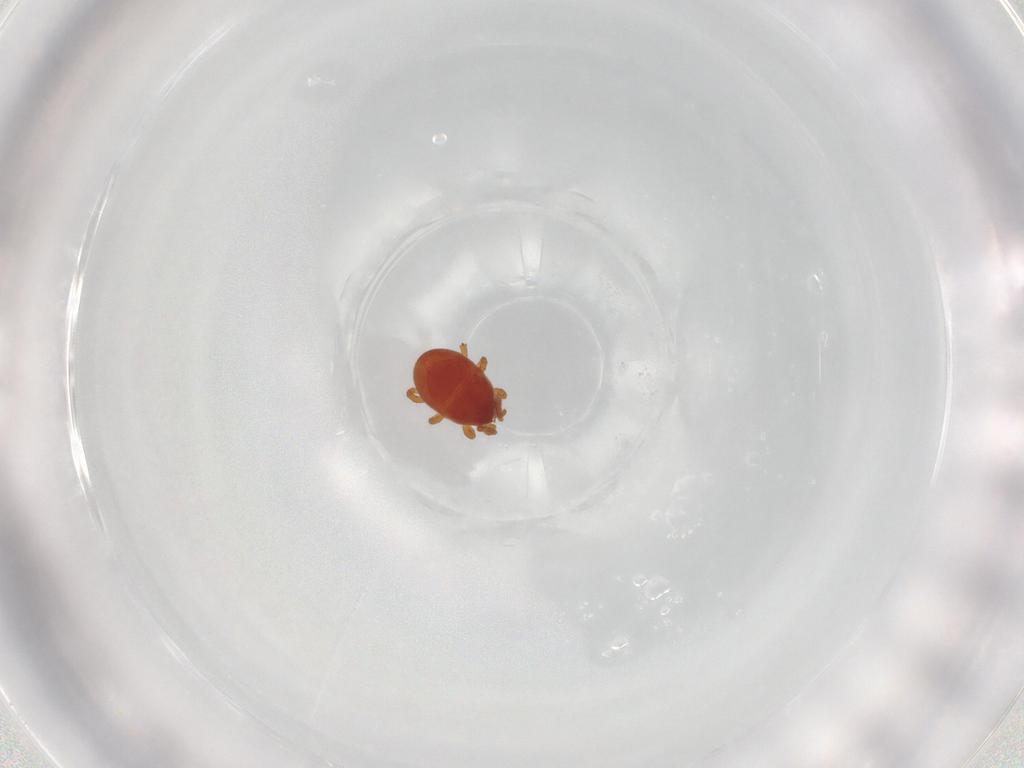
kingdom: Animalia
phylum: Arthropoda
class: Arachnida
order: Mesostigmata
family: Parasitidae
